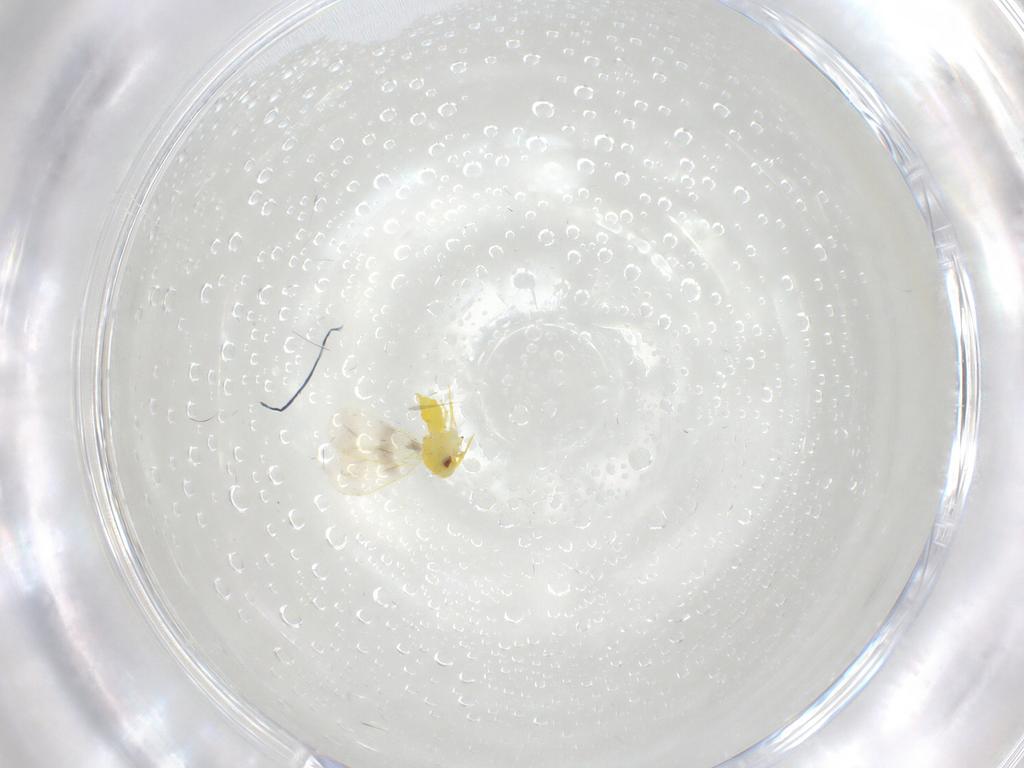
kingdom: Animalia
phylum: Arthropoda
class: Insecta
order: Hemiptera
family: Aleyrodidae
